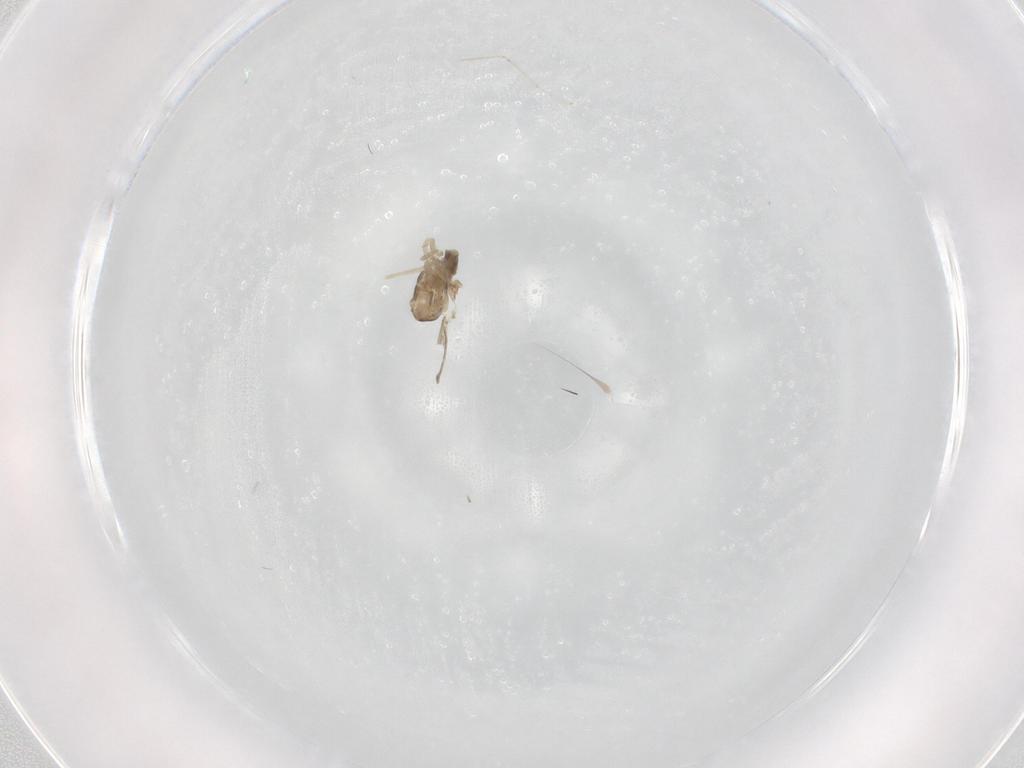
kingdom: Animalia
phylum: Arthropoda
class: Insecta
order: Diptera
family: Cecidomyiidae
